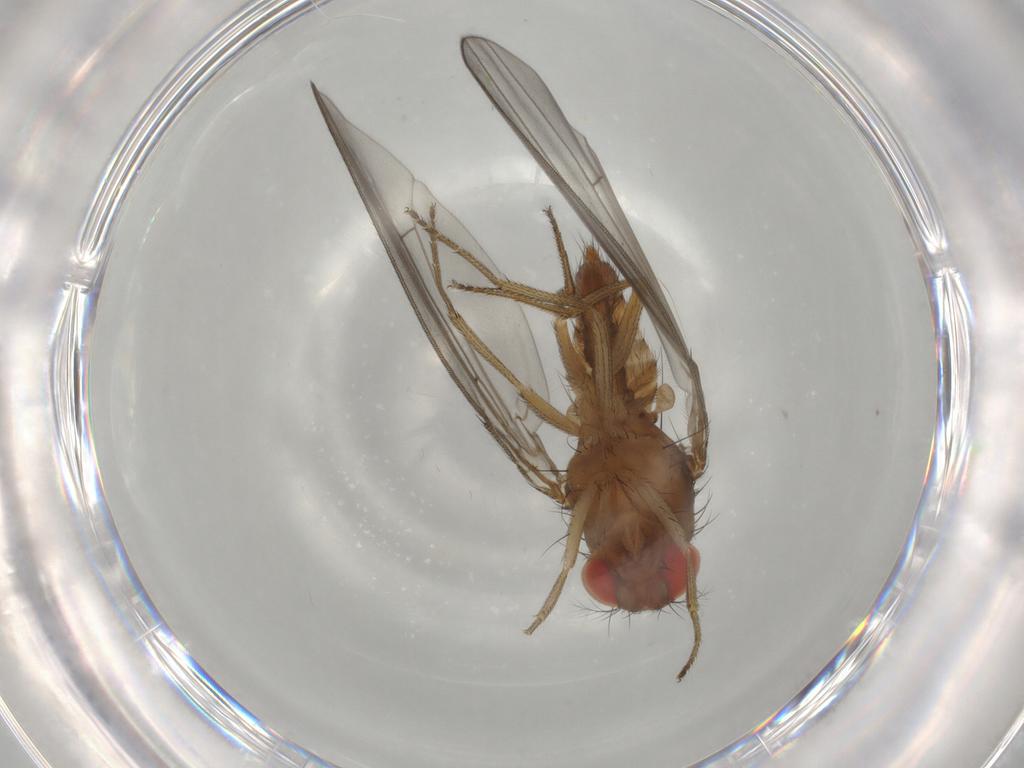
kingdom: Animalia
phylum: Arthropoda
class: Insecta
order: Diptera
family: Drosophilidae
